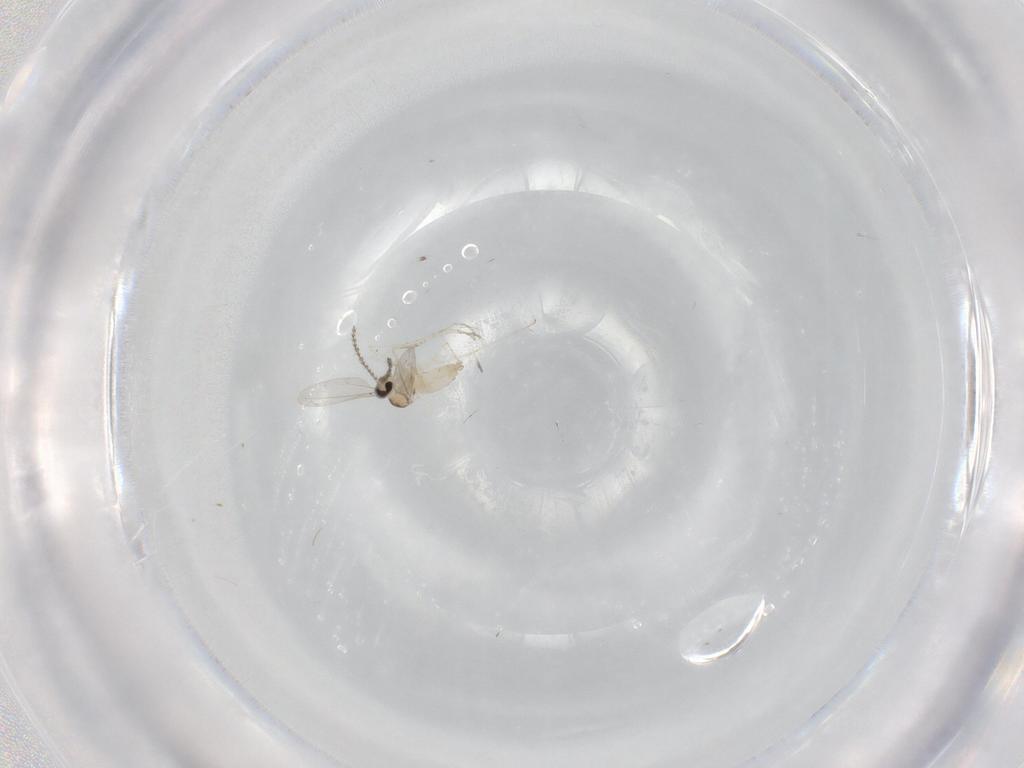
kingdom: Animalia
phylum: Arthropoda
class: Insecta
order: Diptera
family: Cecidomyiidae
